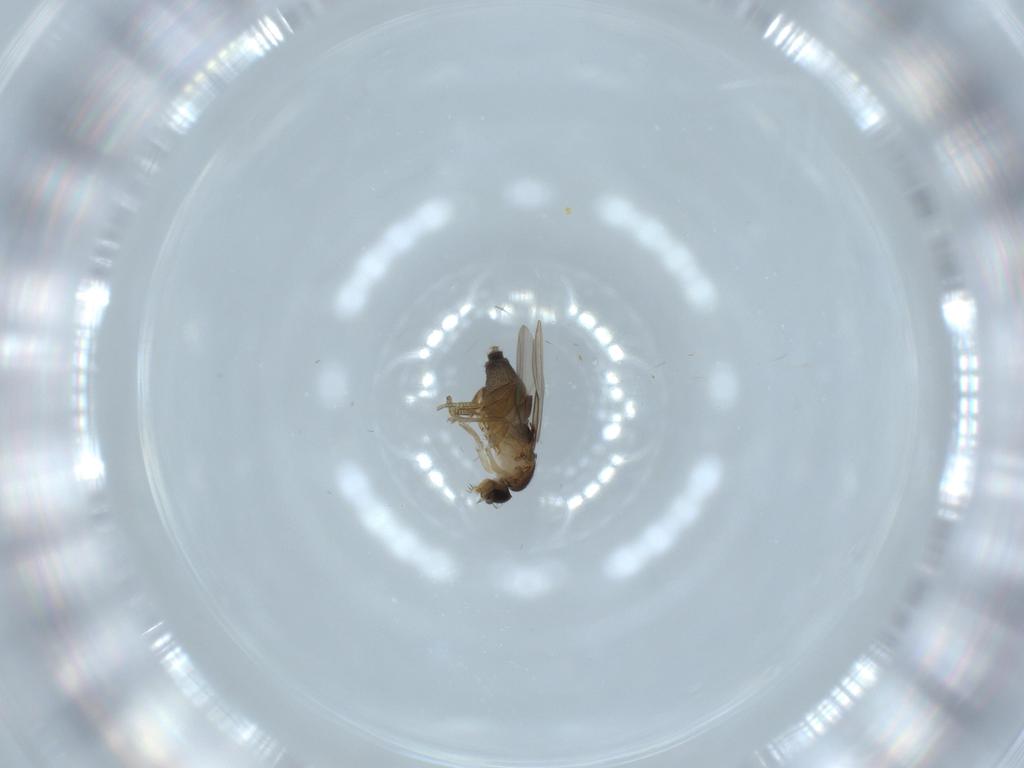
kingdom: Animalia
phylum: Arthropoda
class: Insecta
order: Diptera
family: Phoridae
